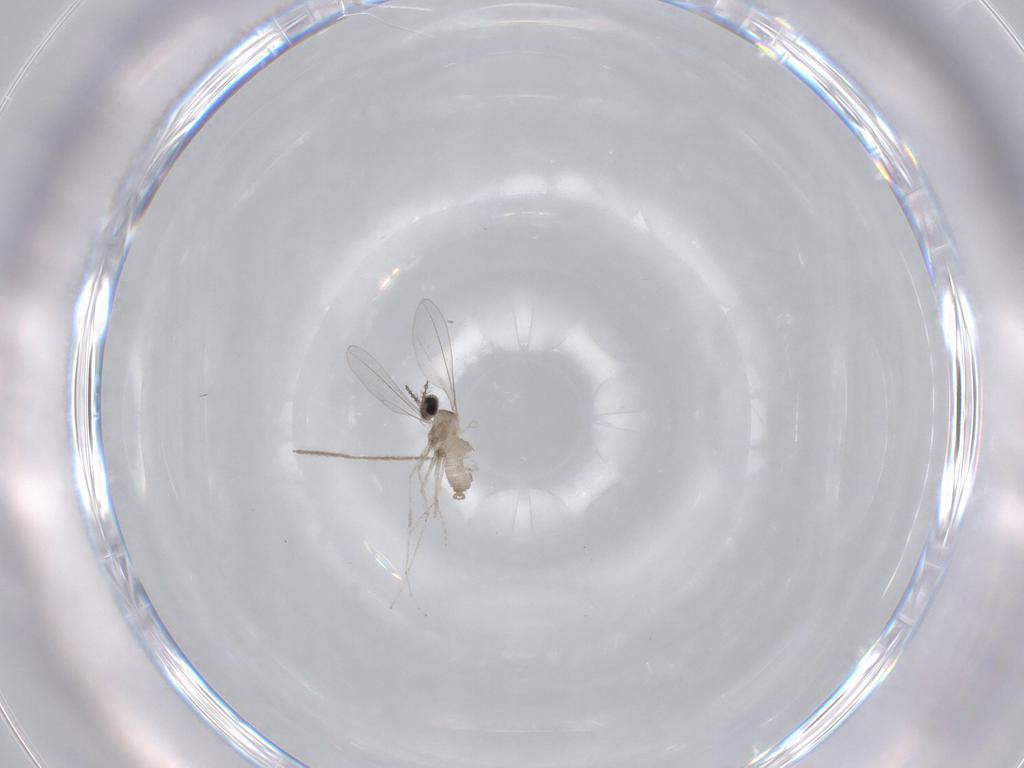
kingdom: Animalia
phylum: Arthropoda
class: Insecta
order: Diptera
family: Cecidomyiidae
